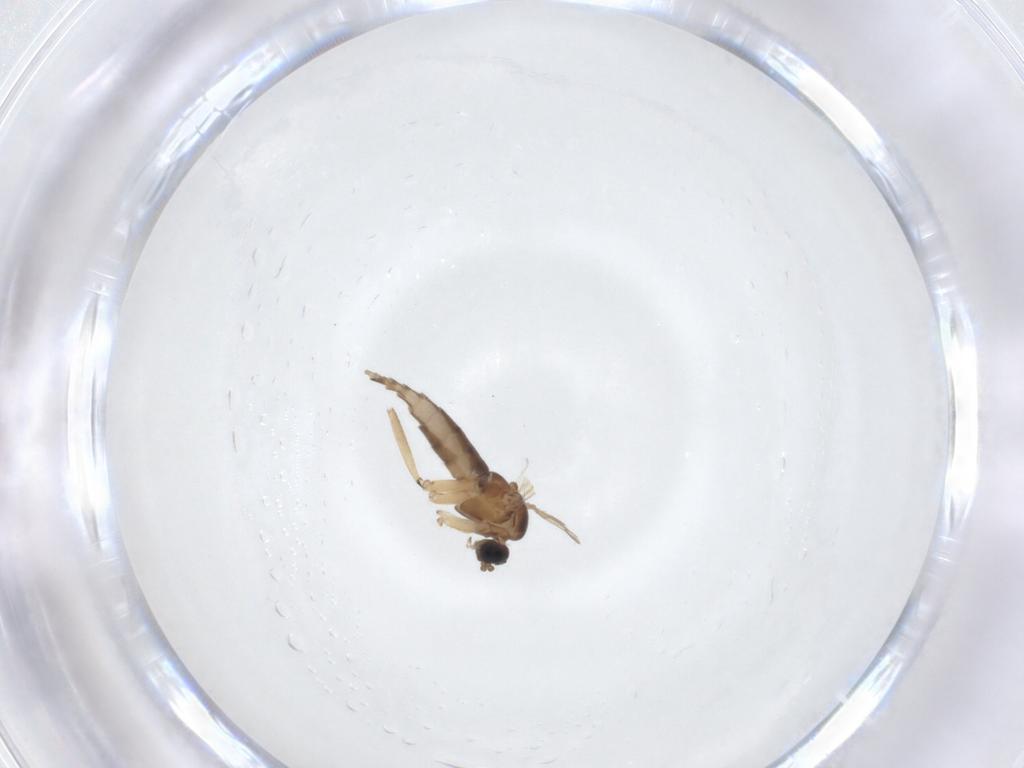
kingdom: Animalia
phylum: Arthropoda
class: Insecta
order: Diptera
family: Sciaridae
